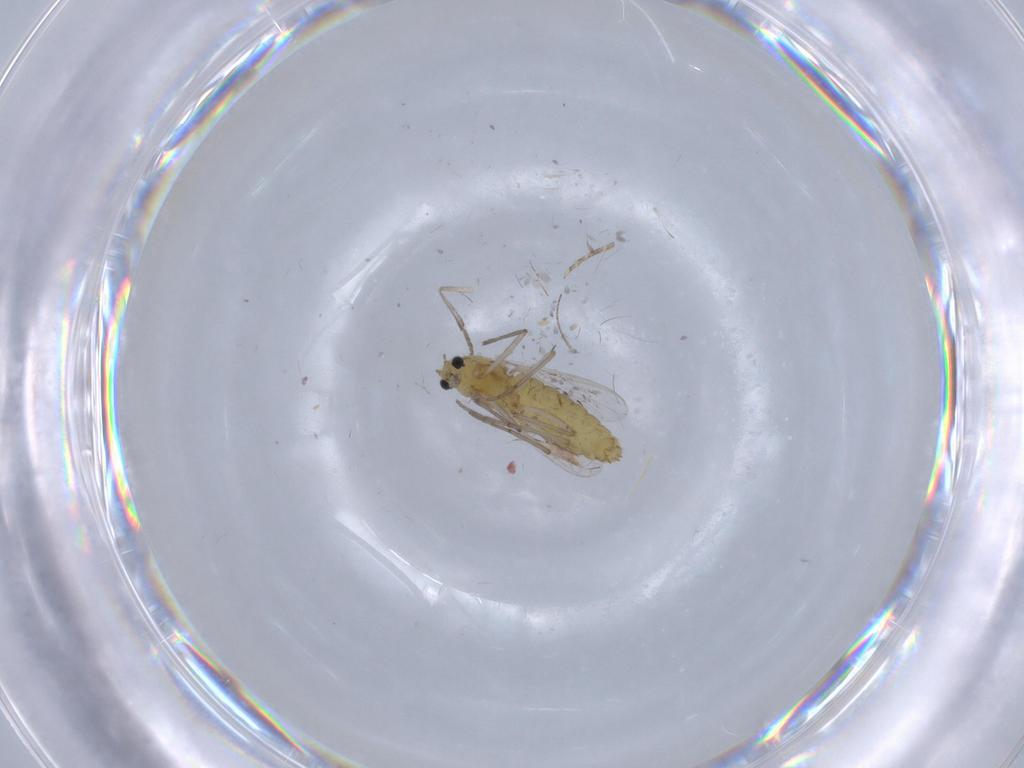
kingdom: Animalia
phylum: Arthropoda
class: Insecta
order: Diptera
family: Chironomidae
